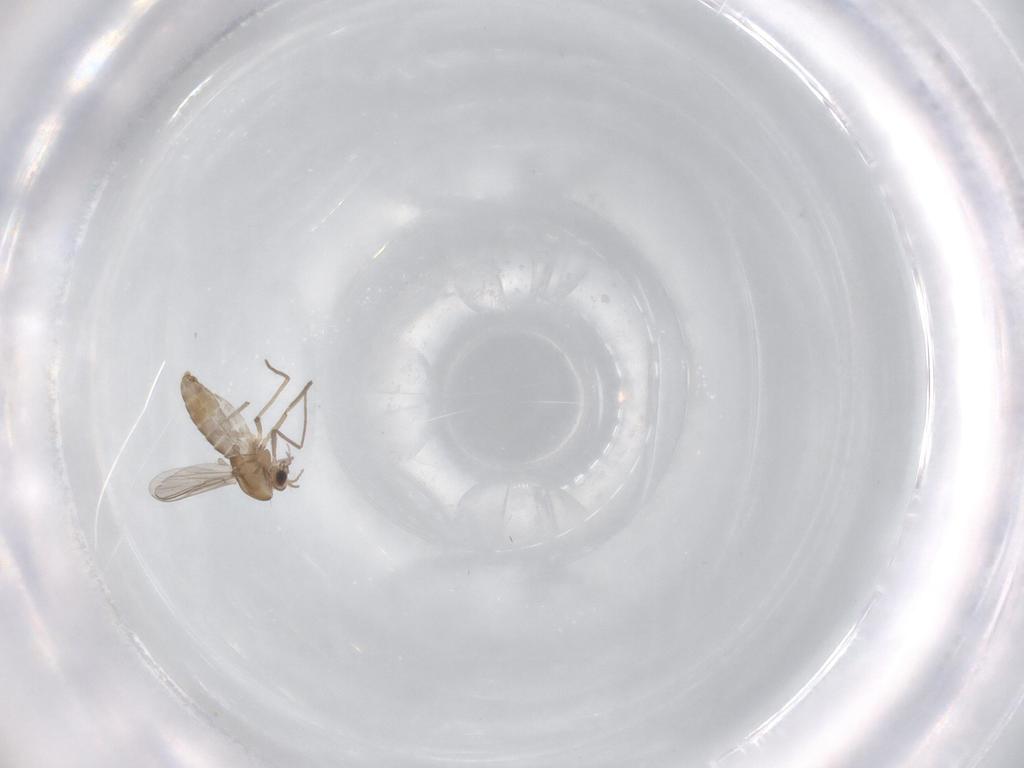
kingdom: Animalia
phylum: Arthropoda
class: Insecta
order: Diptera
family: Chironomidae
